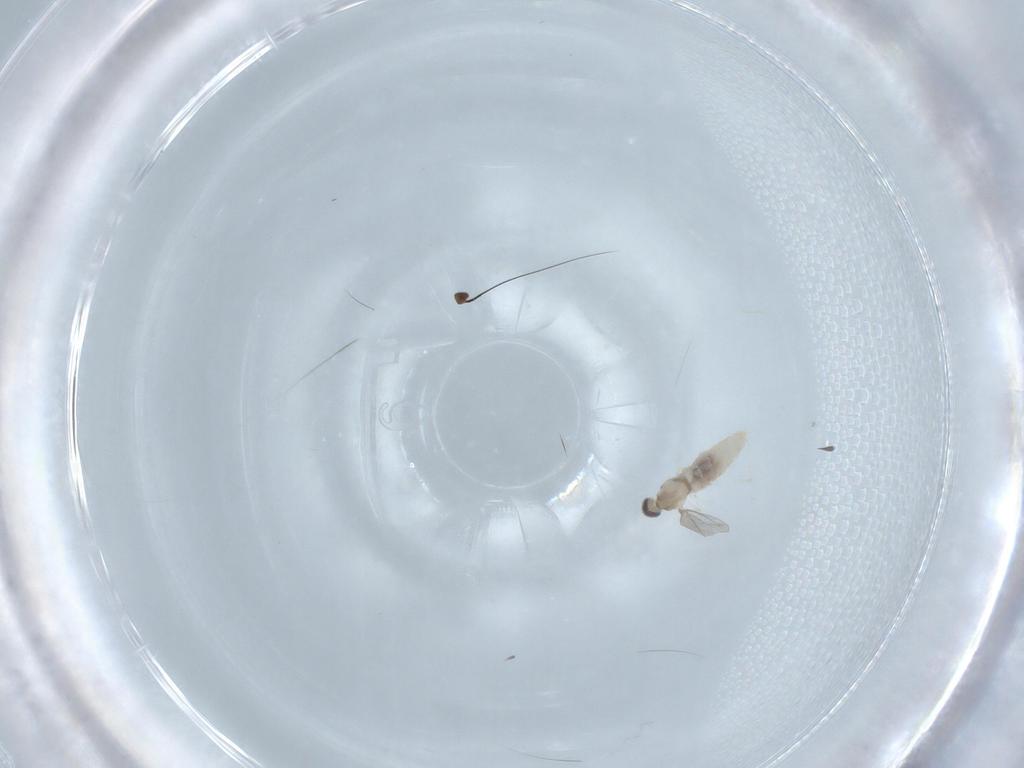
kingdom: Animalia
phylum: Arthropoda
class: Insecta
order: Diptera
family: Cecidomyiidae
